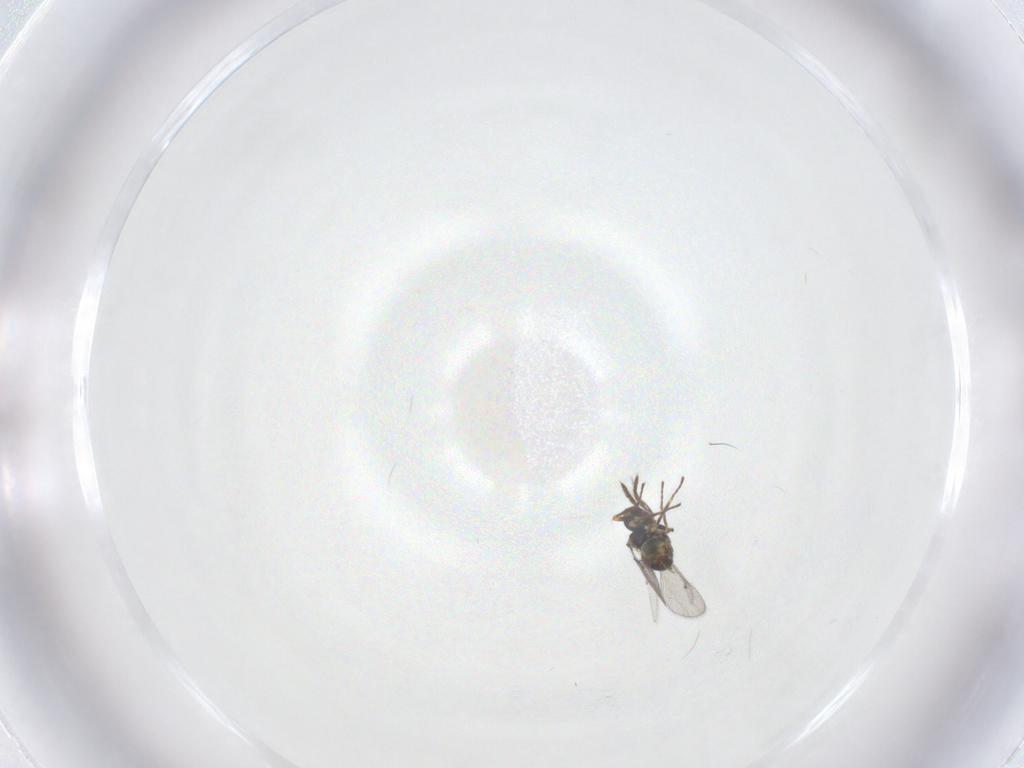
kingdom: Animalia
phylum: Arthropoda
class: Insecta
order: Hymenoptera
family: Eulophidae
